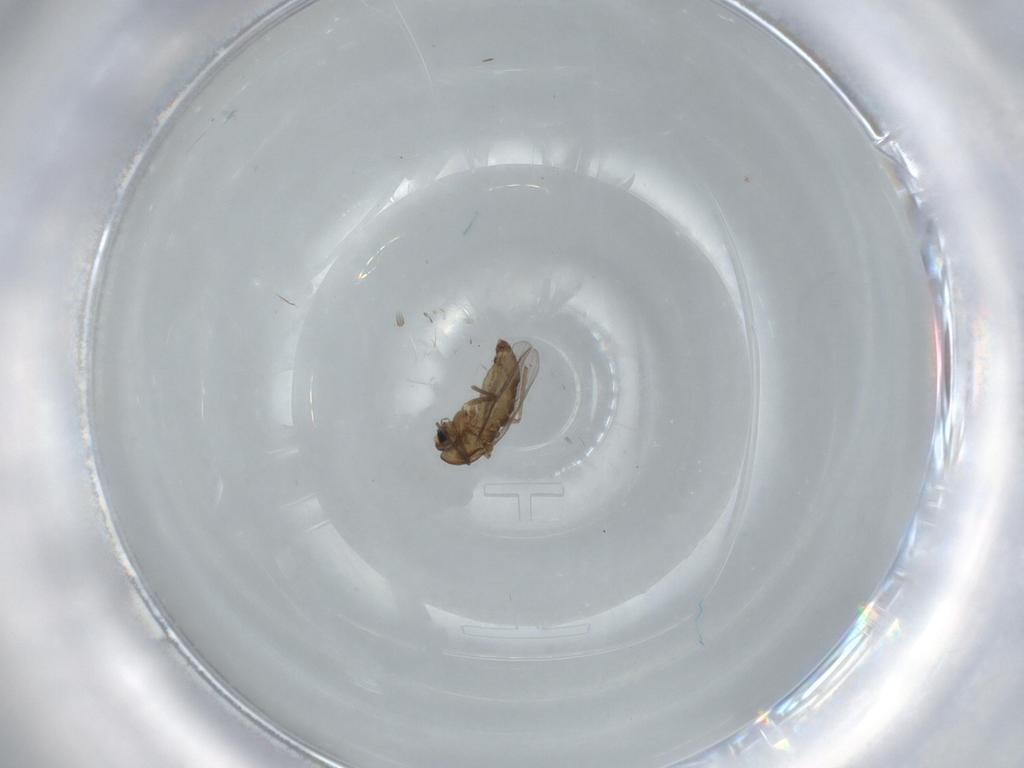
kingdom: Animalia
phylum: Arthropoda
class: Insecta
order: Diptera
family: Chironomidae
